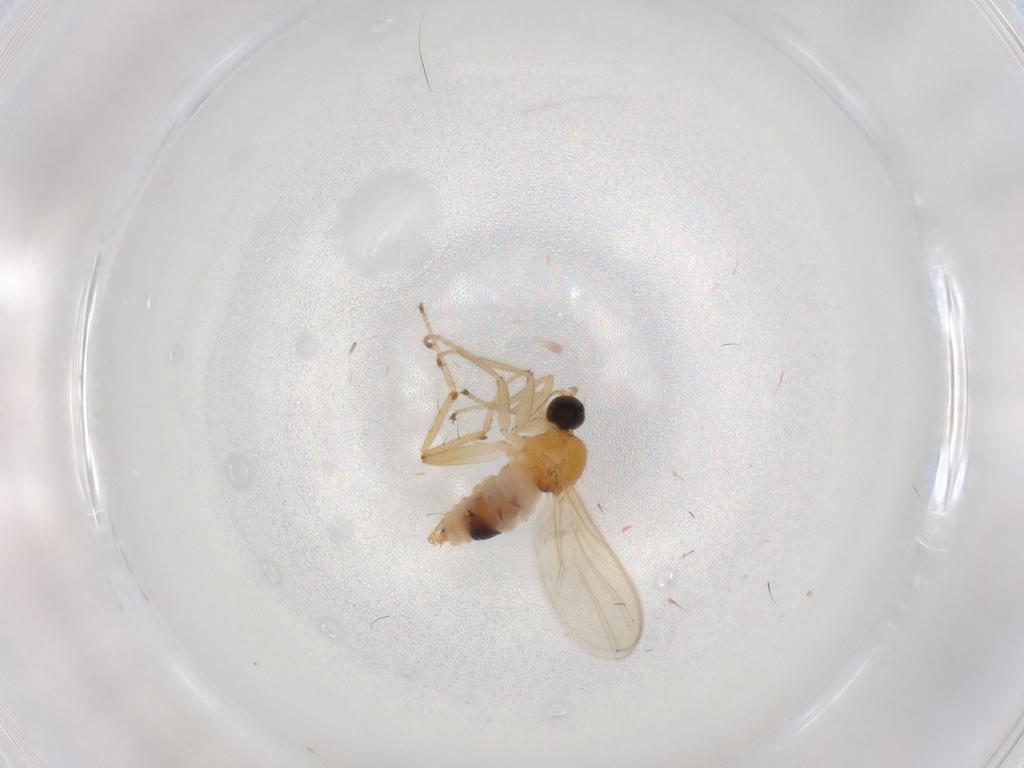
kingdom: Animalia
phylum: Arthropoda
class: Insecta
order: Diptera
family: Hybotidae
